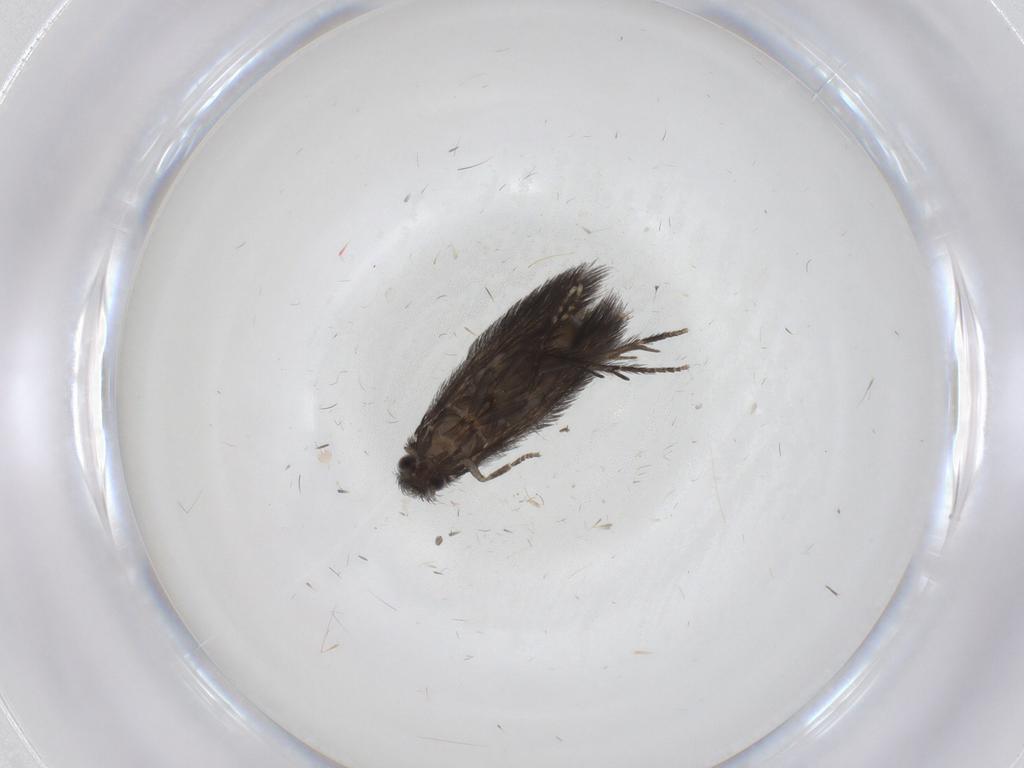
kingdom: Animalia
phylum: Arthropoda
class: Insecta
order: Trichoptera
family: Hydroptilidae
